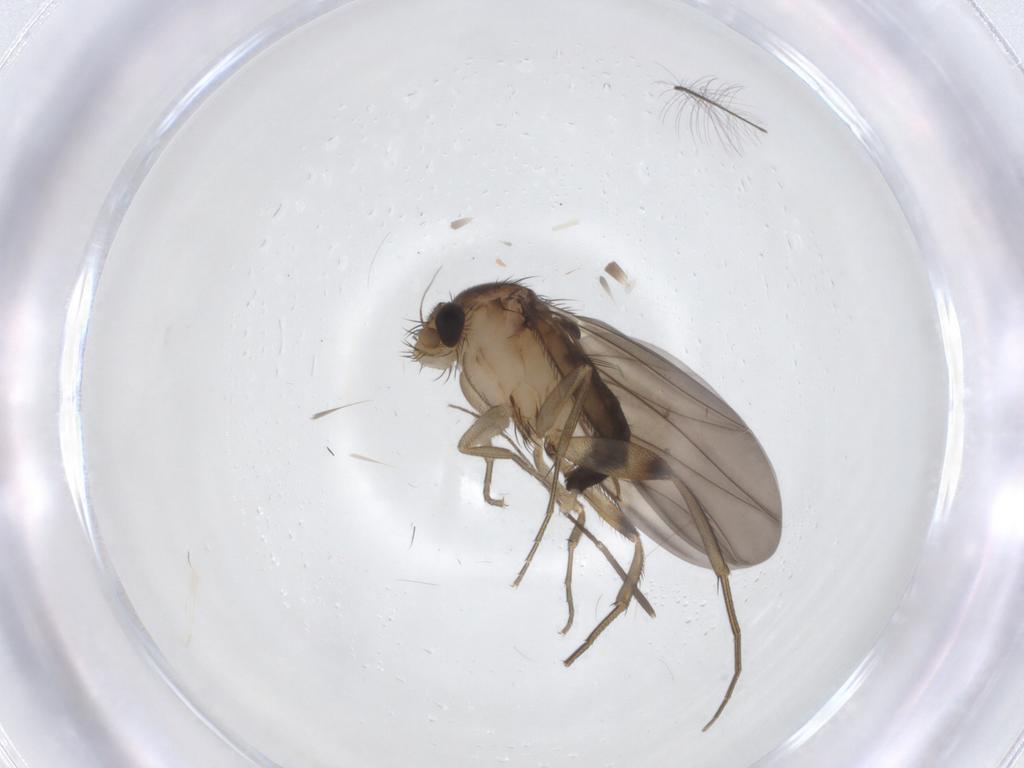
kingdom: Animalia
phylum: Arthropoda
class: Insecta
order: Diptera
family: Phoridae
